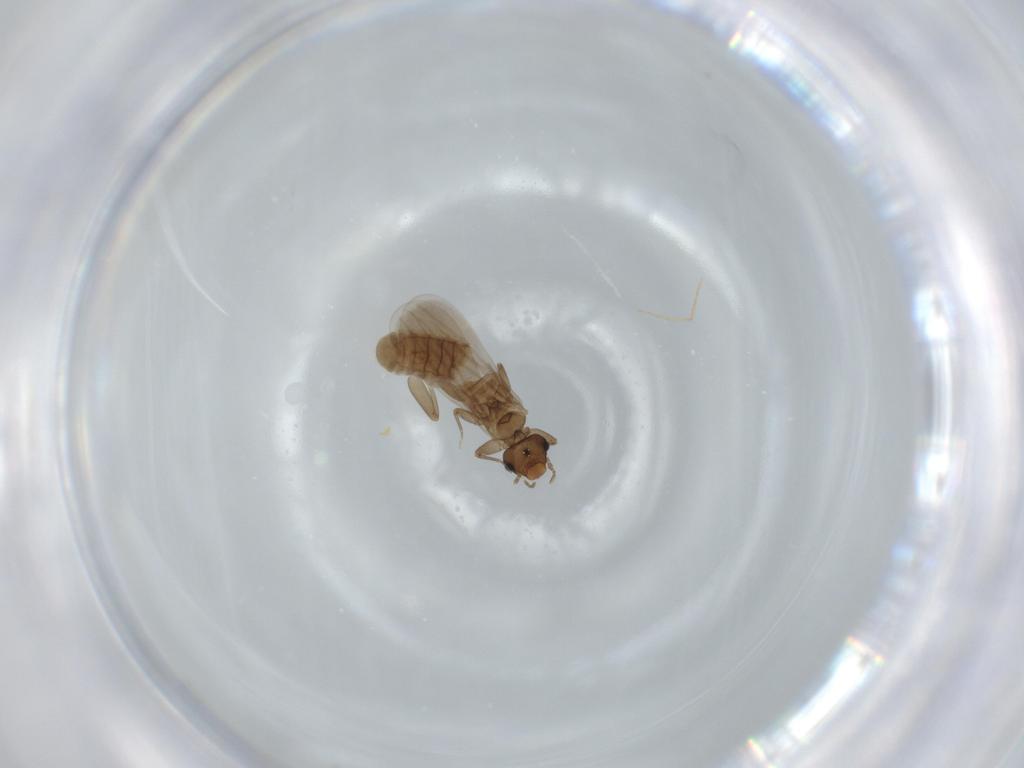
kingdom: Animalia
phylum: Arthropoda
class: Insecta
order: Psocodea
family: Liposcelididae
